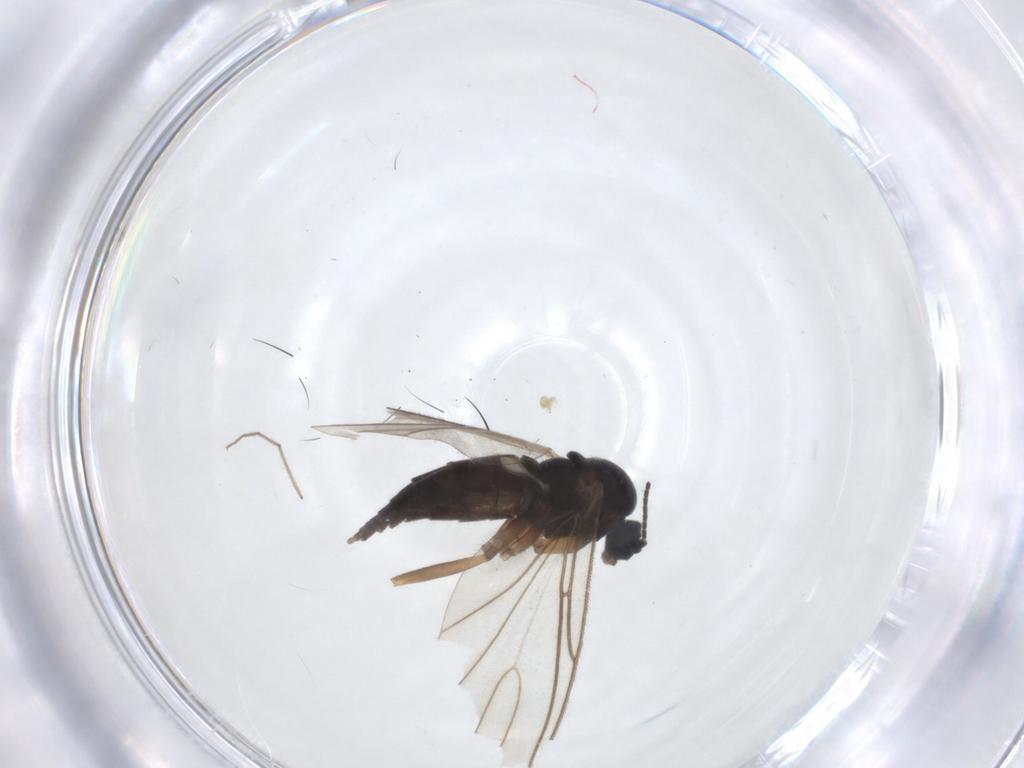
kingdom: Animalia
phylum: Arthropoda
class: Insecta
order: Diptera
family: Sciaridae
